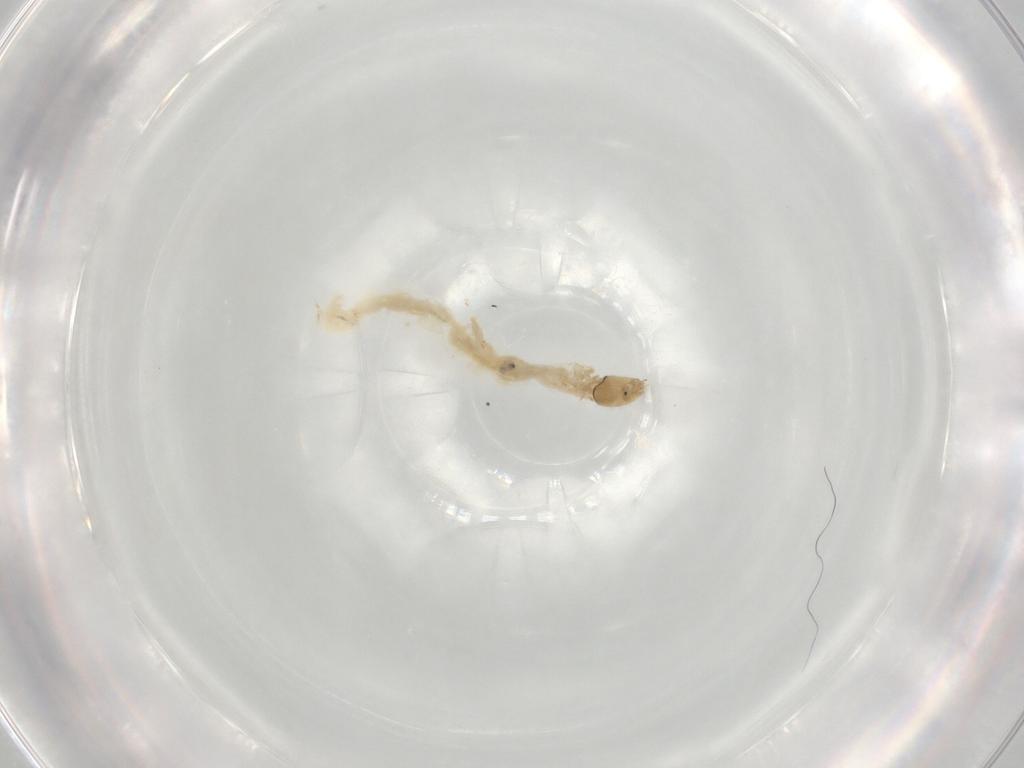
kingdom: Animalia
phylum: Arthropoda
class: Insecta
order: Diptera
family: Chironomidae
